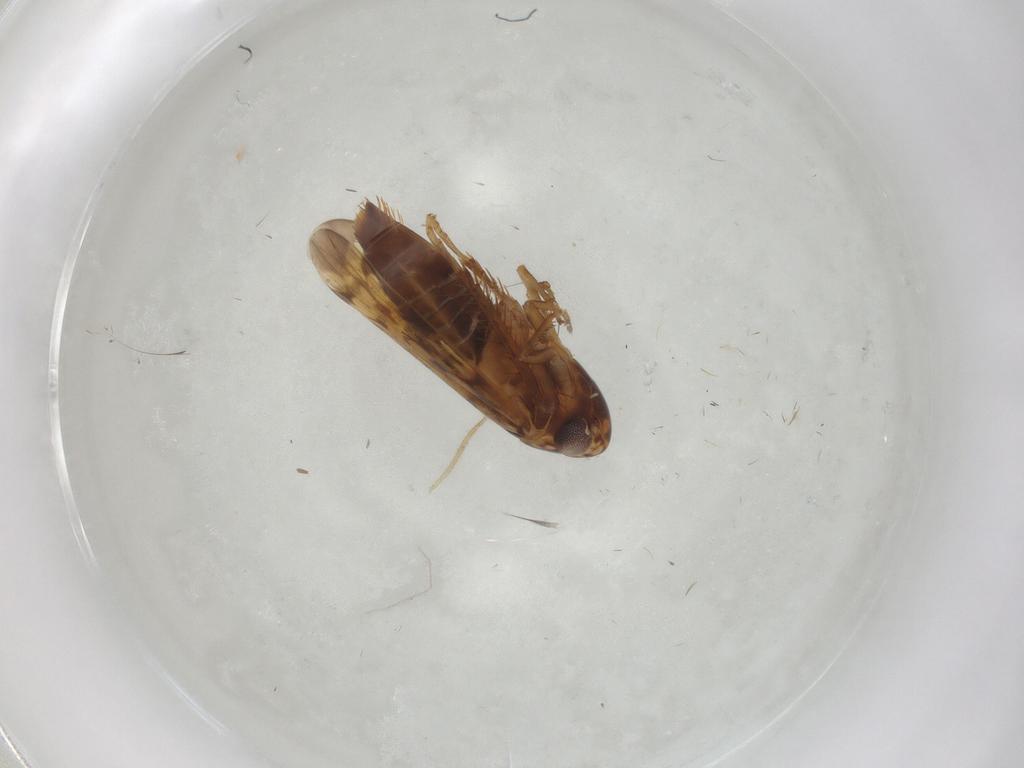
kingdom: Animalia
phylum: Arthropoda
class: Insecta
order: Hemiptera
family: Cicadellidae
